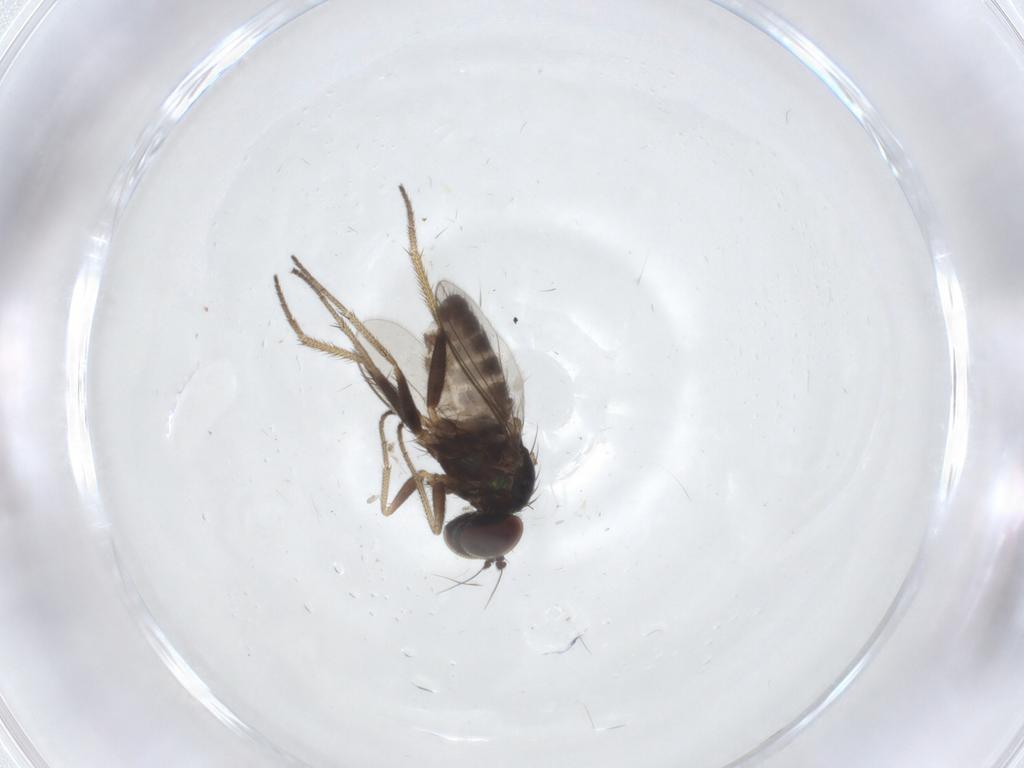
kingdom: Animalia
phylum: Arthropoda
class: Insecta
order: Diptera
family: Dolichopodidae
